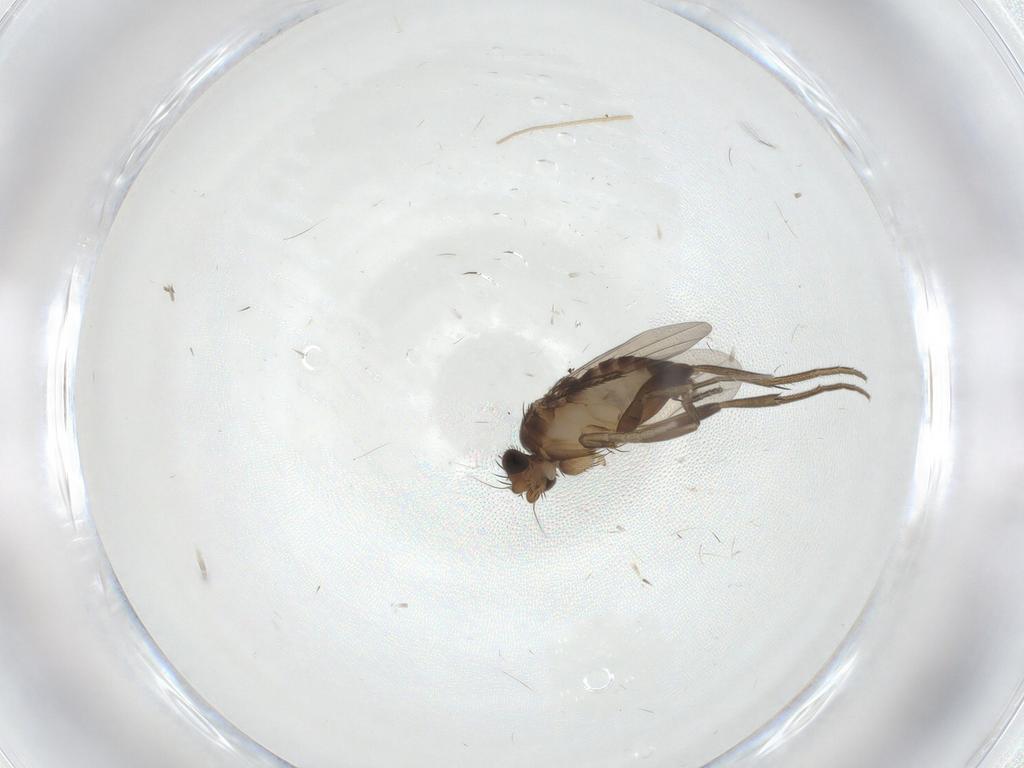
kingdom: Animalia
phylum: Arthropoda
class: Insecta
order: Diptera
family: Phoridae
